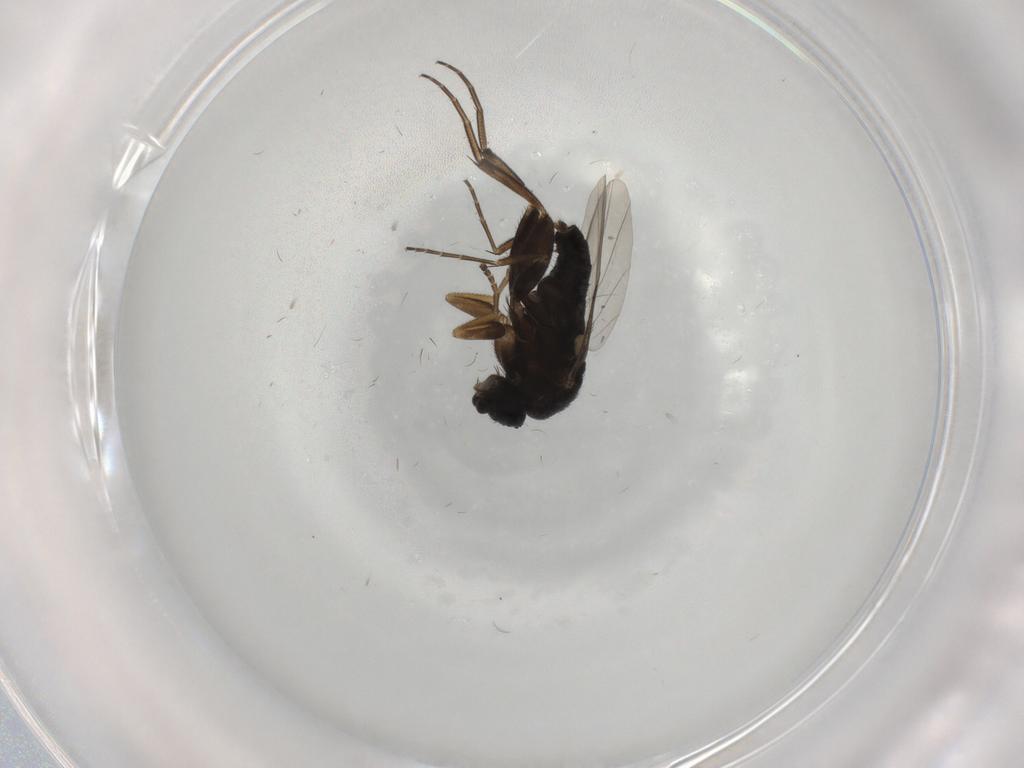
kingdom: Animalia
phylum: Arthropoda
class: Insecta
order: Diptera
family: Phoridae
